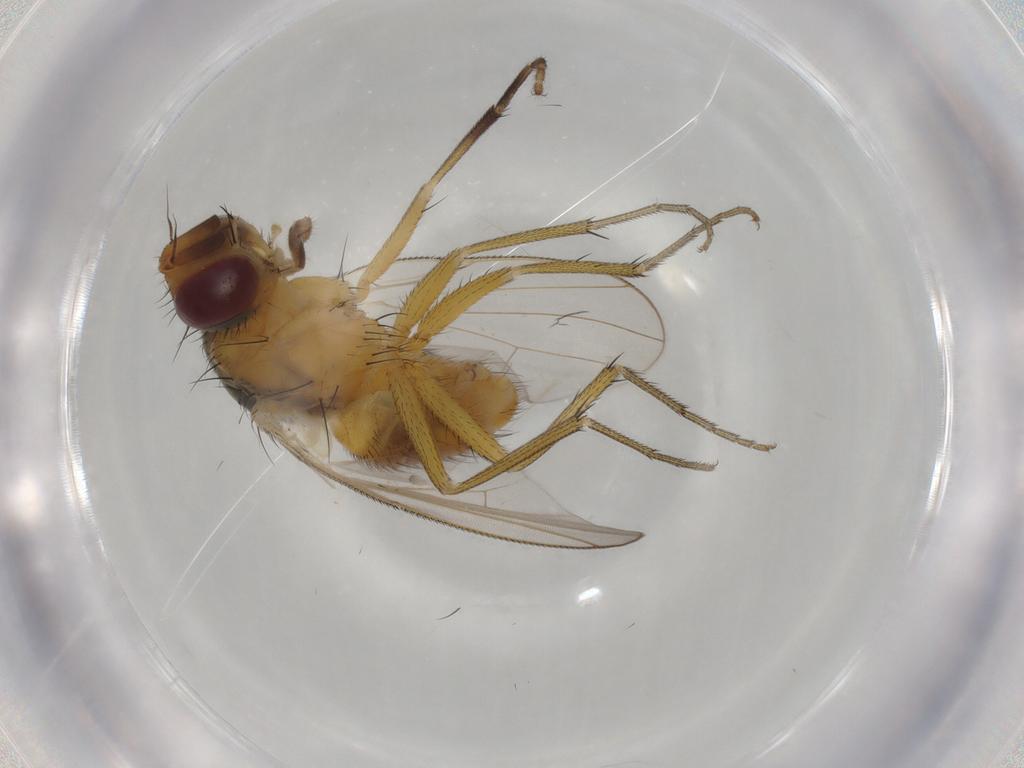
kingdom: Animalia
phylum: Arthropoda
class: Insecta
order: Diptera
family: Muscidae
